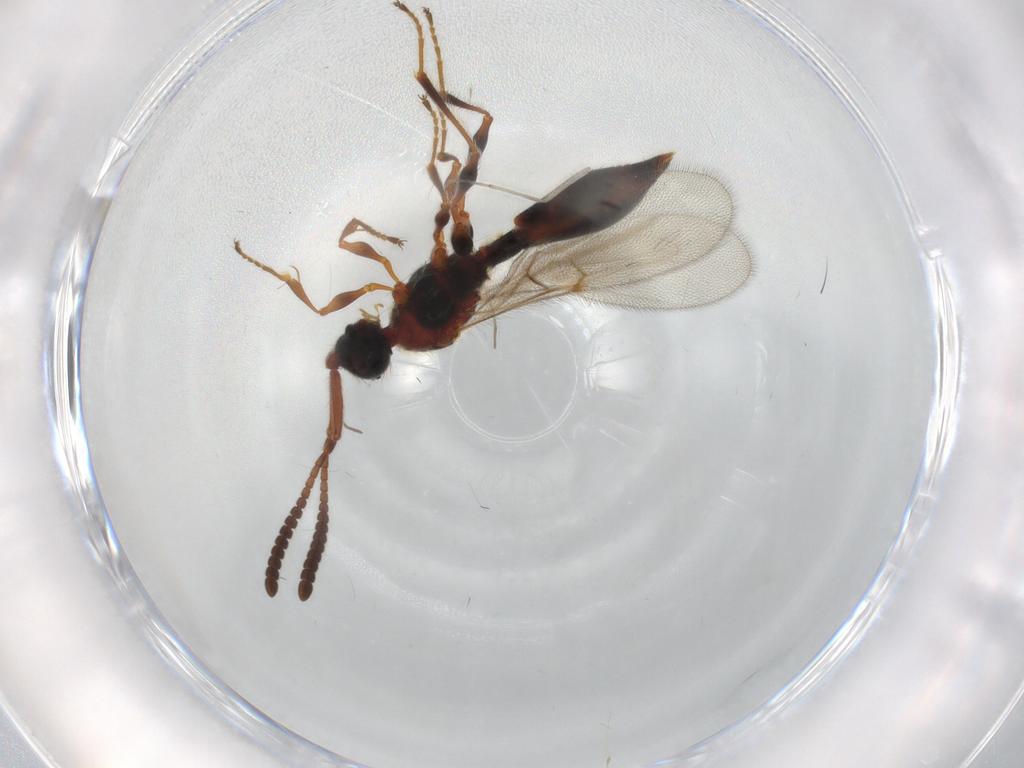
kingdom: Animalia
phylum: Arthropoda
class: Insecta
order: Hymenoptera
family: Diapriidae
